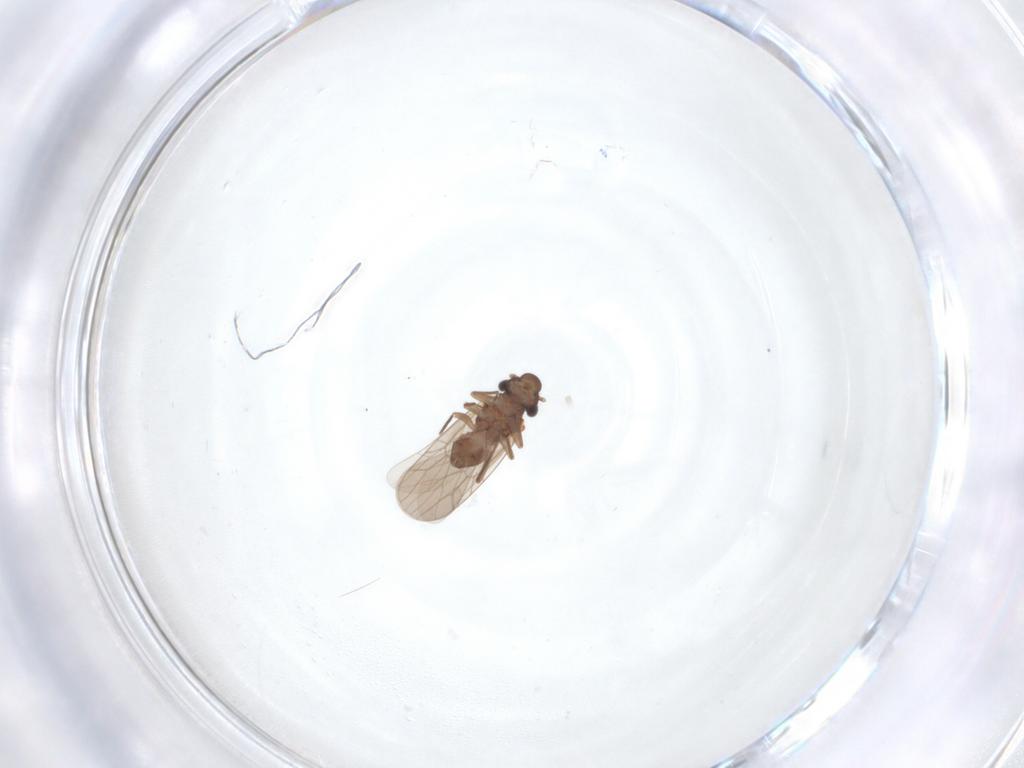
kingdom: Animalia
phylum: Arthropoda
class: Insecta
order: Psocodea
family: Lepidopsocidae
